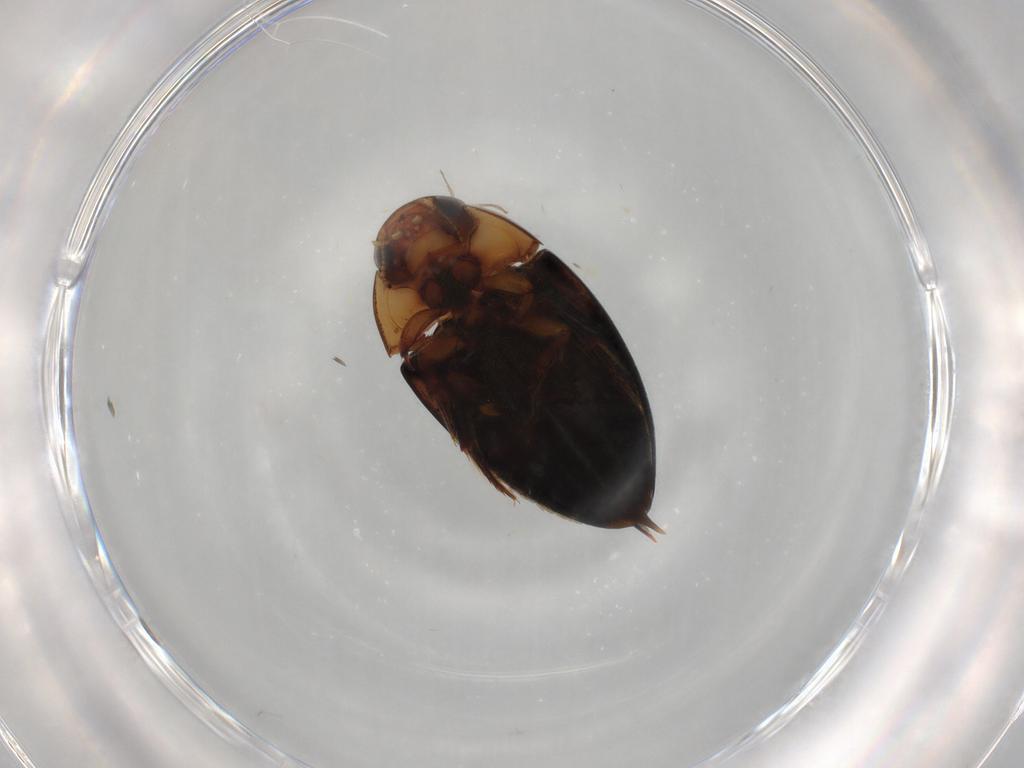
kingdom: Animalia
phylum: Arthropoda
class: Insecta
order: Coleoptera
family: Noteridae
